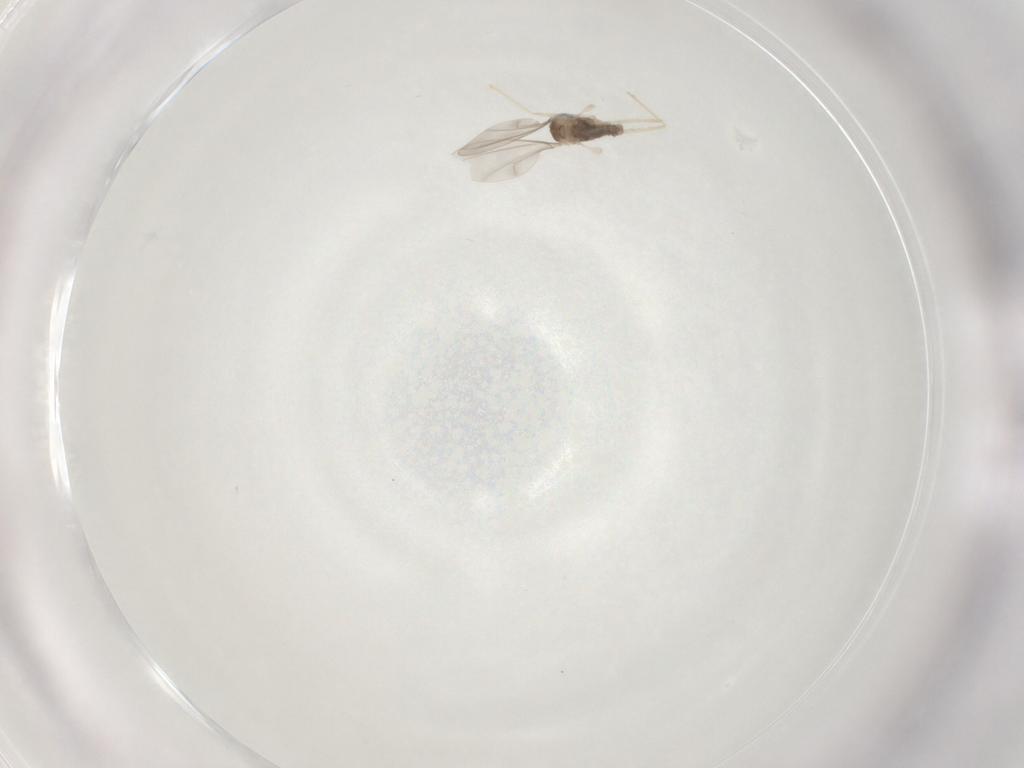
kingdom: Animalia
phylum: Arthropoda
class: Insecta
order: Diptera
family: Cecidomyiidae
